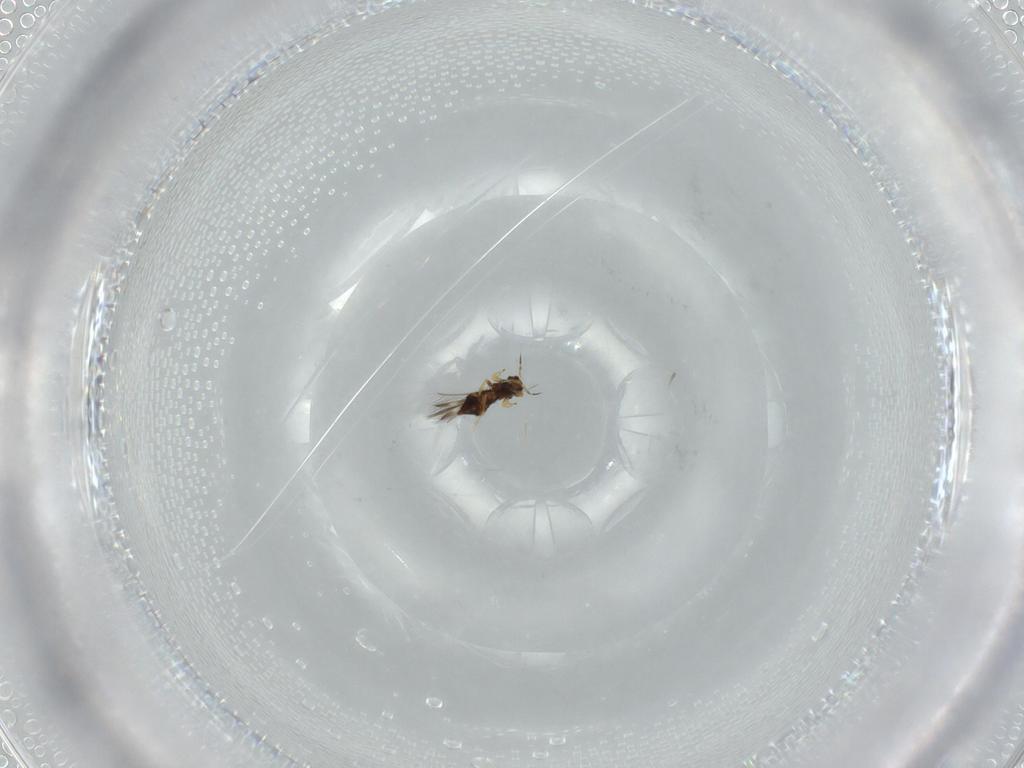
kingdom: Animalia
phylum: Arthropoda
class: Insecta
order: Thysanoptera
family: Thripidae
